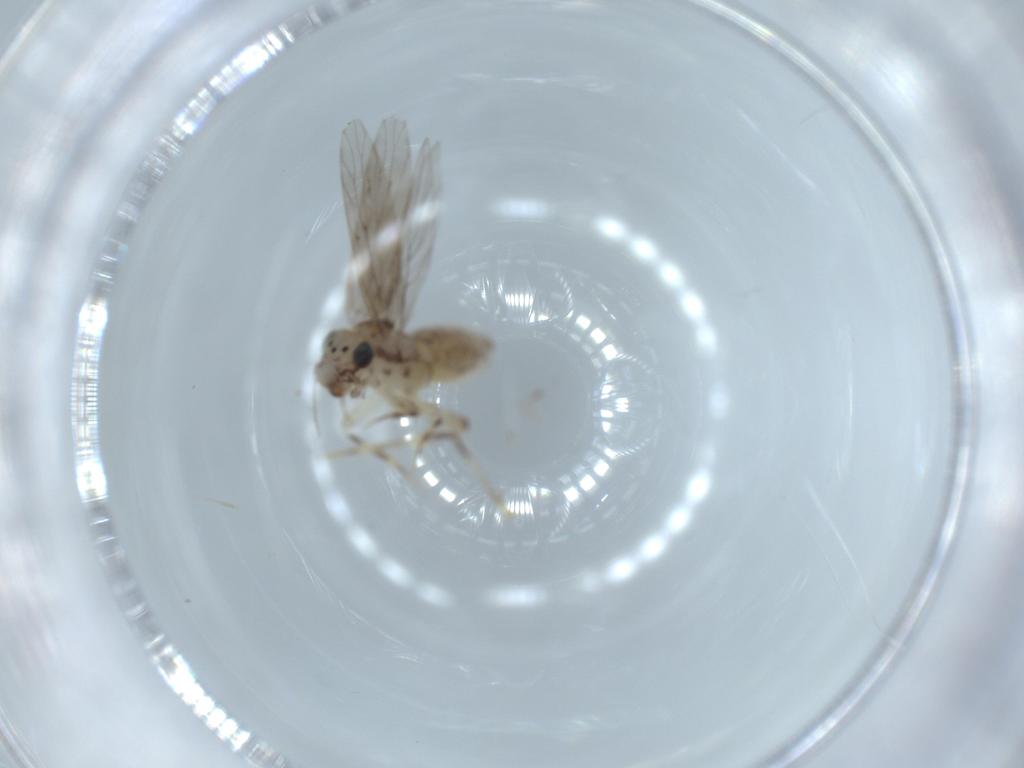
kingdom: Animalia
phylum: Arthropoda
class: Insecta
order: Psocodea
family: Lepidopsocidae
